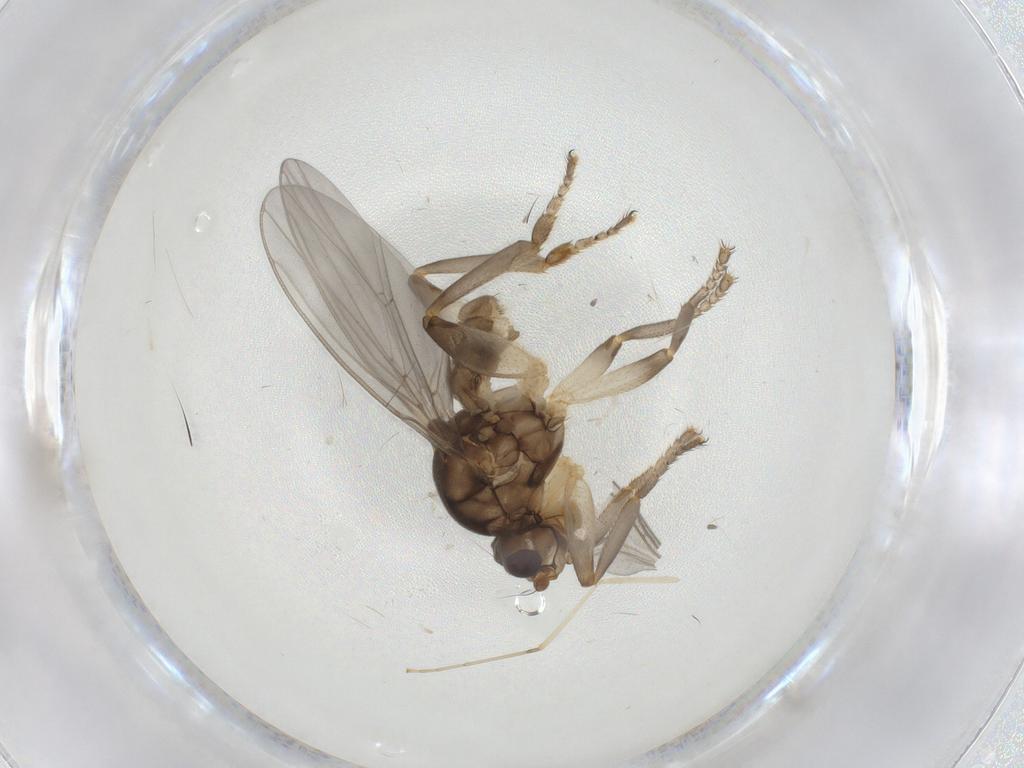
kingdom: Animalia
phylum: Arthropoda
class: Insecta
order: Diptera
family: Sphaeroceridae
